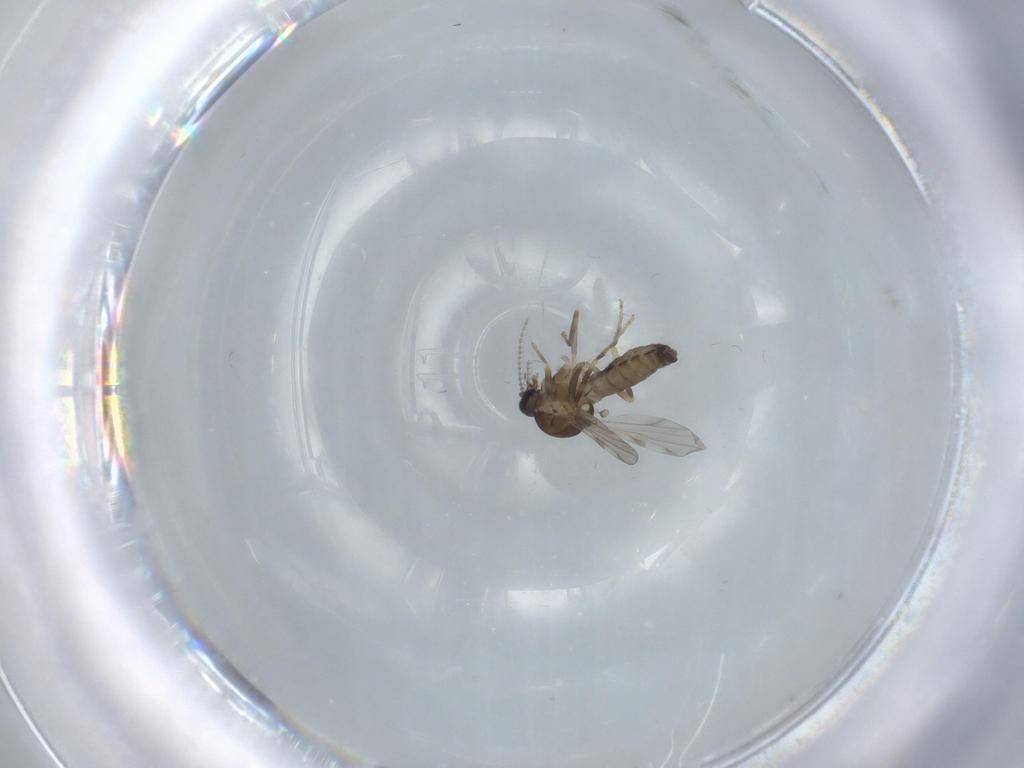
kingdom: Animalia
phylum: Arthropoda
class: Insecta
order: Diptera
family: Ceratopogonidae
